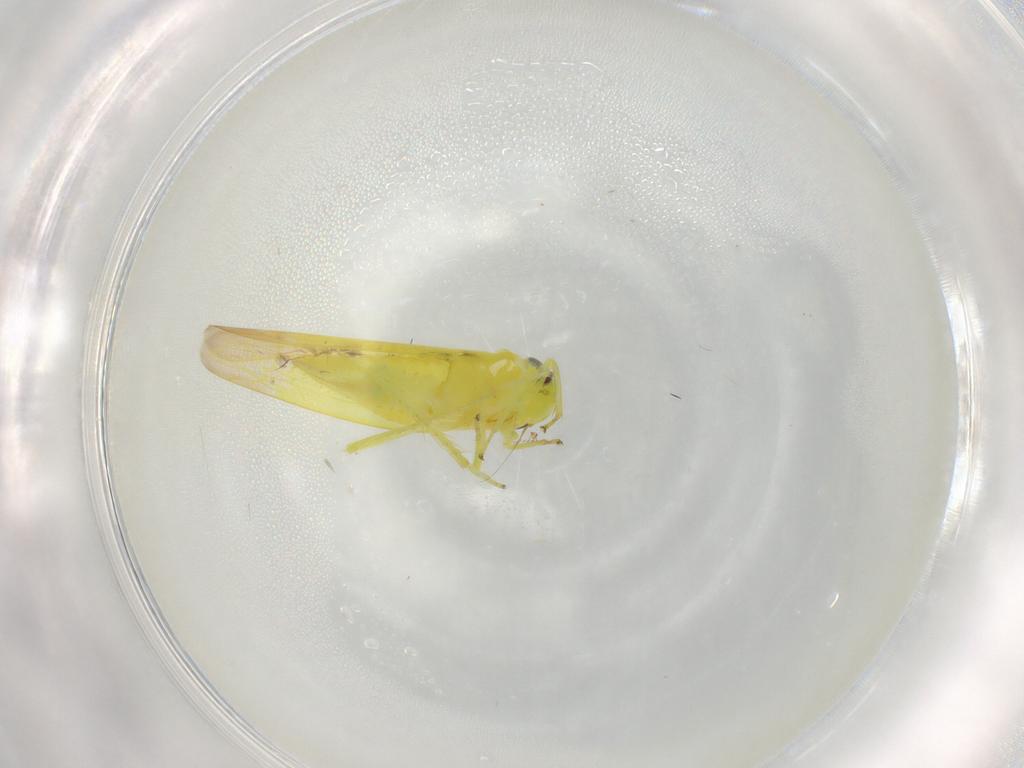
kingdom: Animalia
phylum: Arthropoda
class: Insecta
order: Hemiptera
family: Cicadellidae
